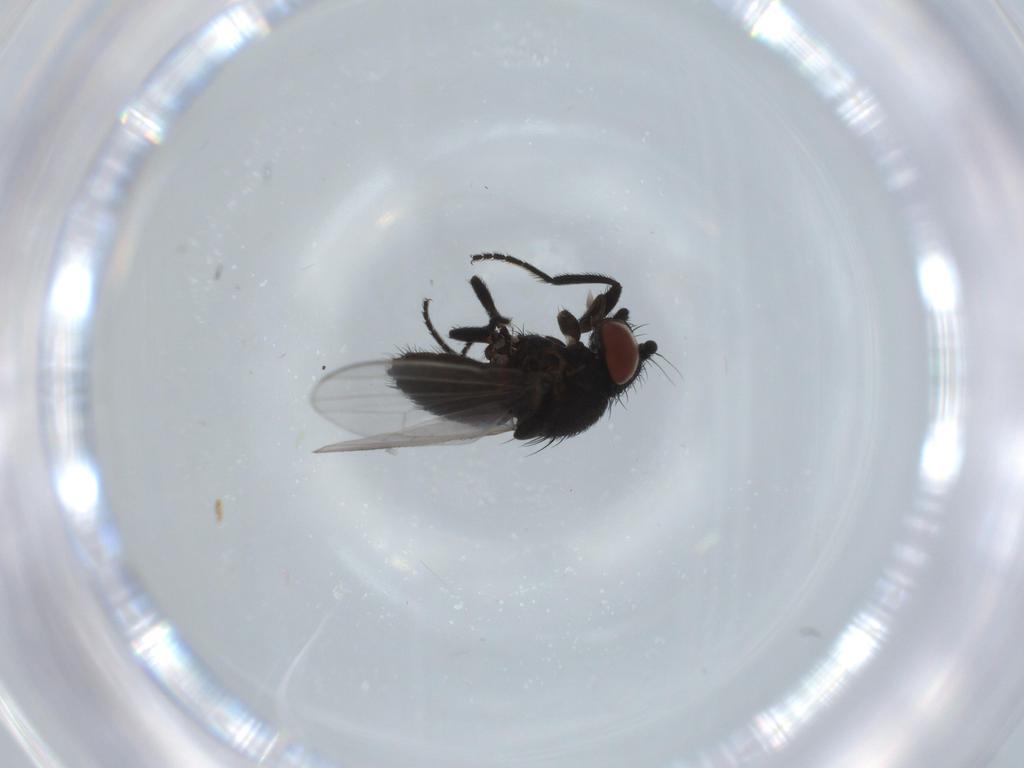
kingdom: Animalia
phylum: Arthropoda
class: Insecta
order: Diptera
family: Milichiidae
